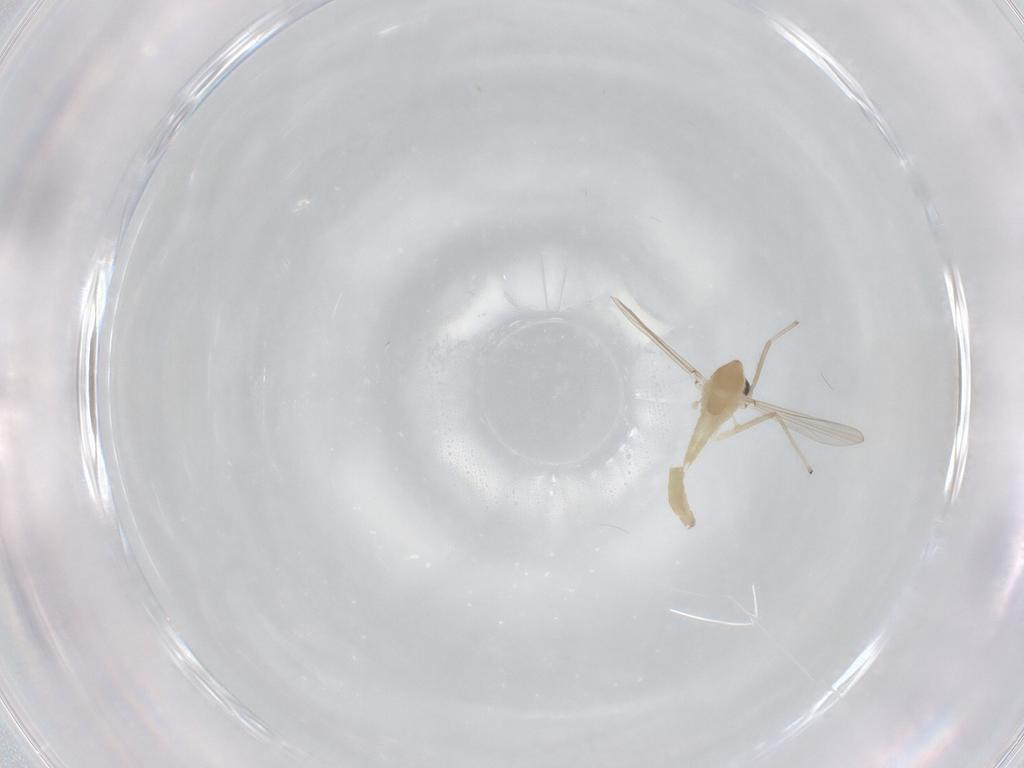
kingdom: Animalia
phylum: Arthropoda
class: Insecta
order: Diptera
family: Chironomidae
